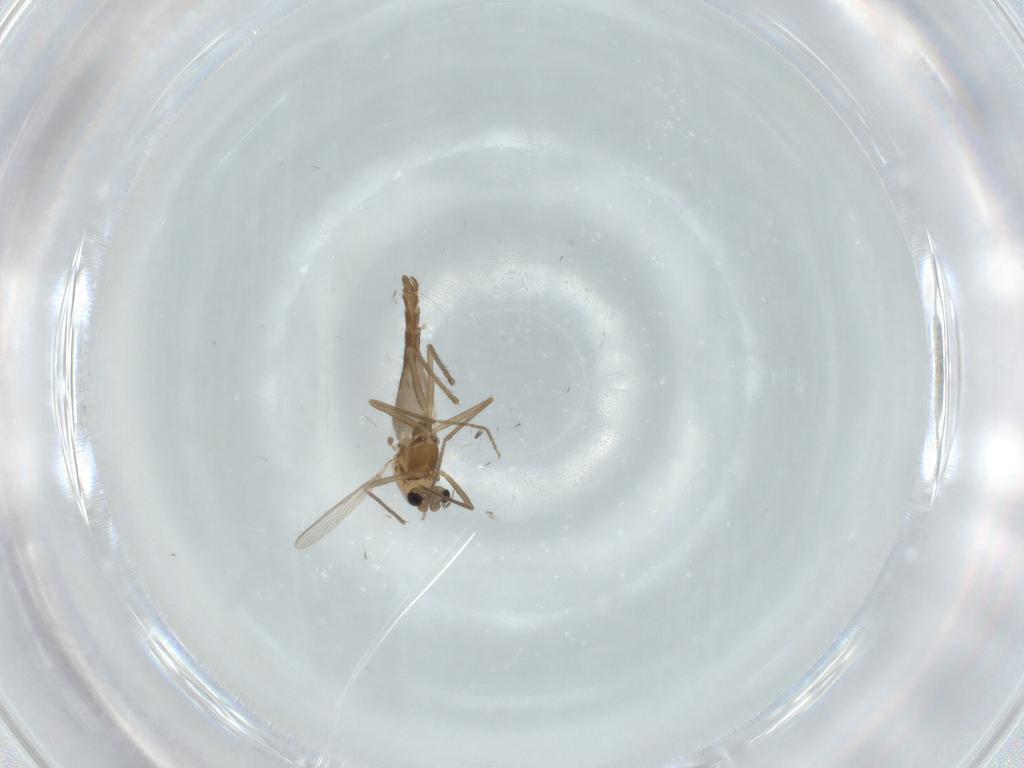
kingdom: Animalia
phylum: Arthropoda
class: Insecta
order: Diptera
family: Chironomidae
